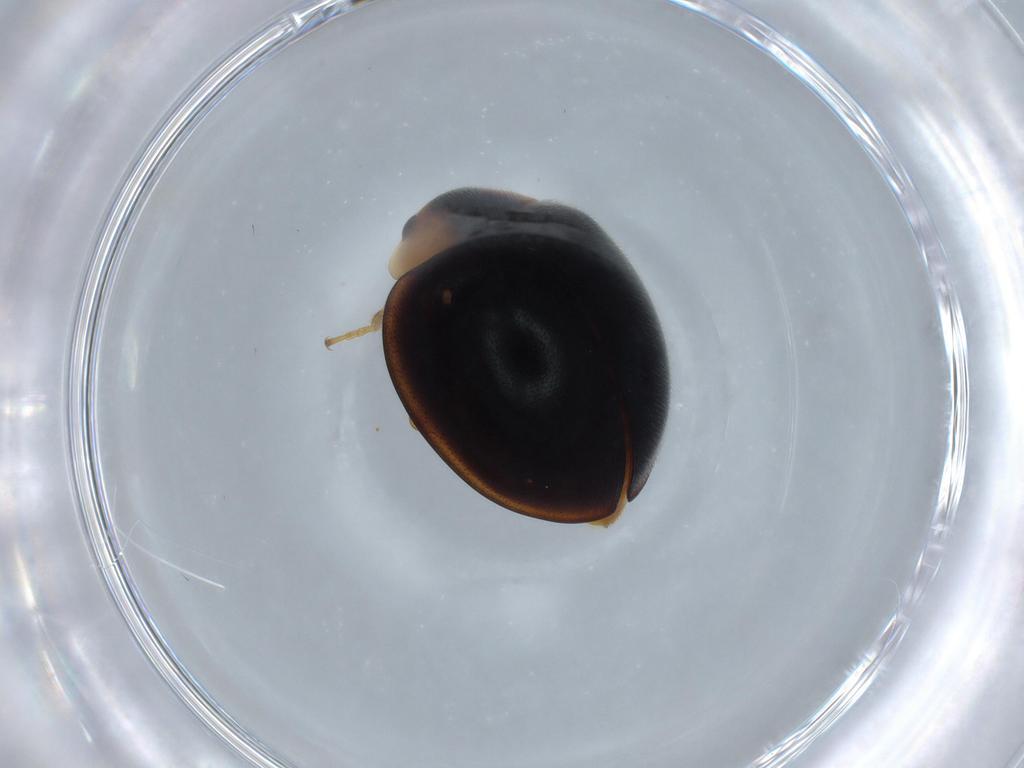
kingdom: Animalia
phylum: Arthropoda
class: Insecta
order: Coleoptera
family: Coccinellidae
